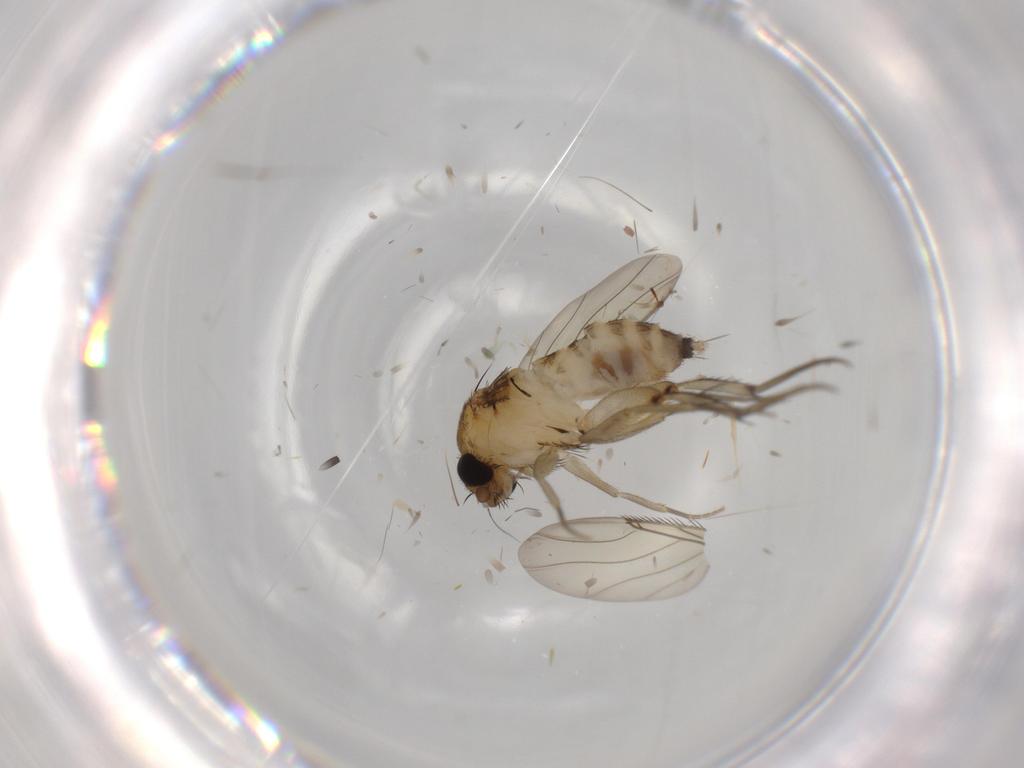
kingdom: Animalia
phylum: Arthropoda
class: Insecta
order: Diptera
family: Phoridae
